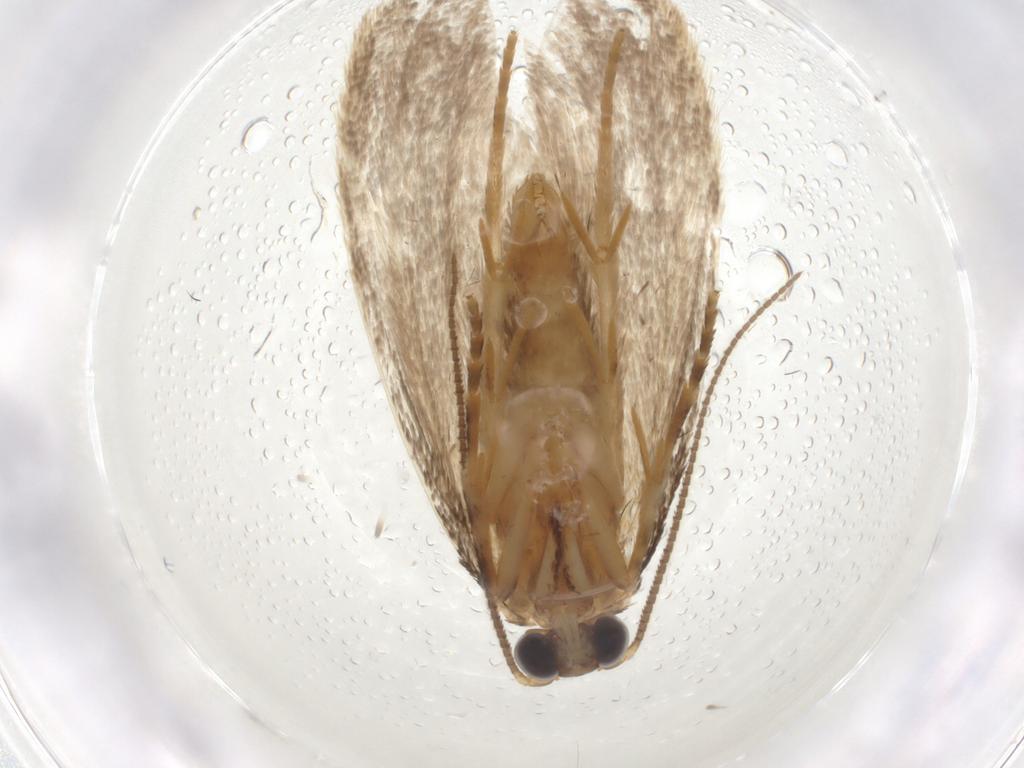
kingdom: Animalia
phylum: Arthropoda
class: Insecta
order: Lepidoptera
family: Eriocottidae
